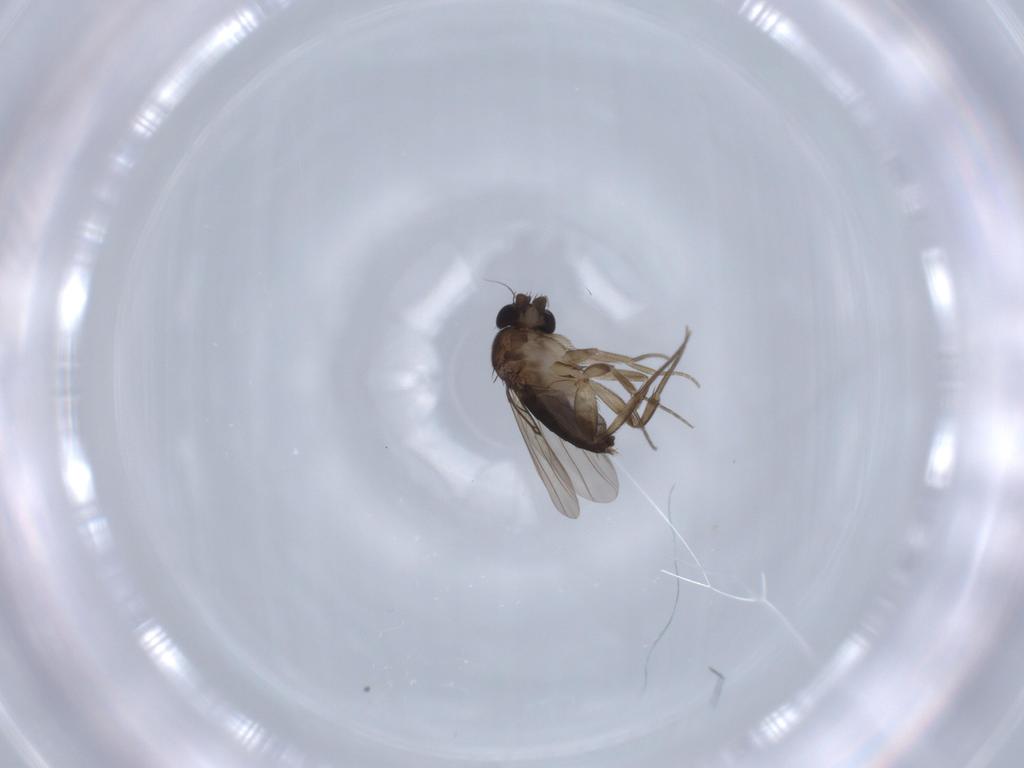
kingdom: Animalia
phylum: Arthropoda
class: Insecta
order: Diptera
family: Phoridae
